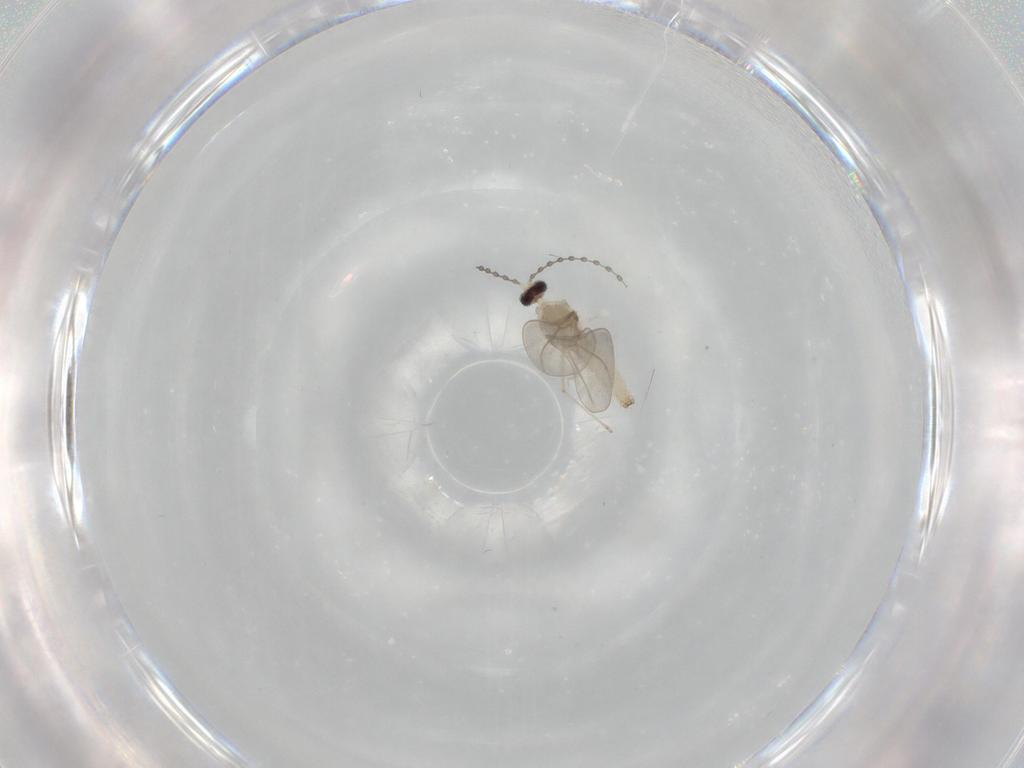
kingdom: Animalia
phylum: Arthropoda
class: Insecta
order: Diptera
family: Cecidomyiidae
